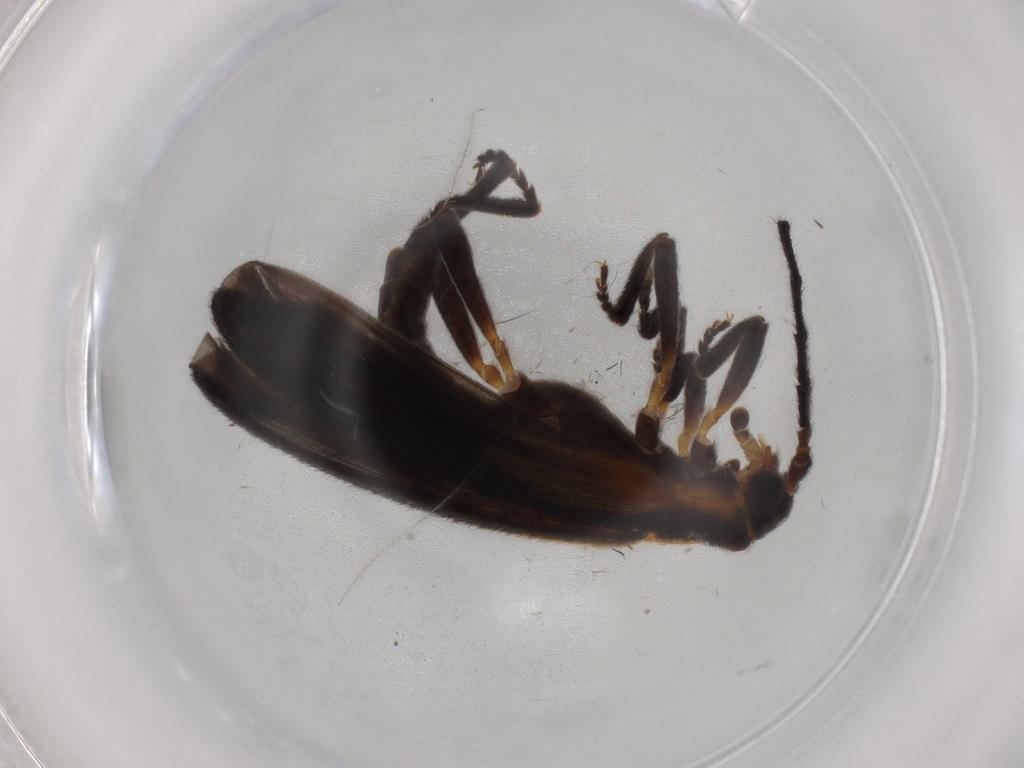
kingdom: Animalia
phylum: Arthropoda
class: Insecta
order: Coleoptera
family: Lycidae
